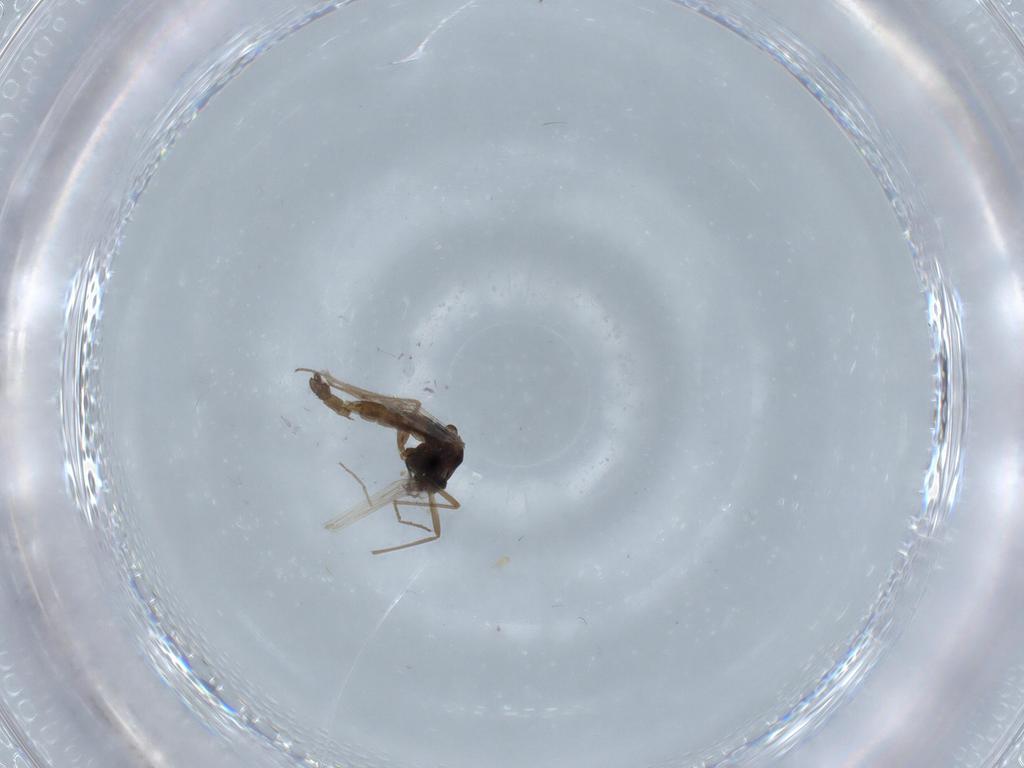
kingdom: Animalia
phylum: Arthropoda
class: Insecta
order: Diptera
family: Chironomidae
